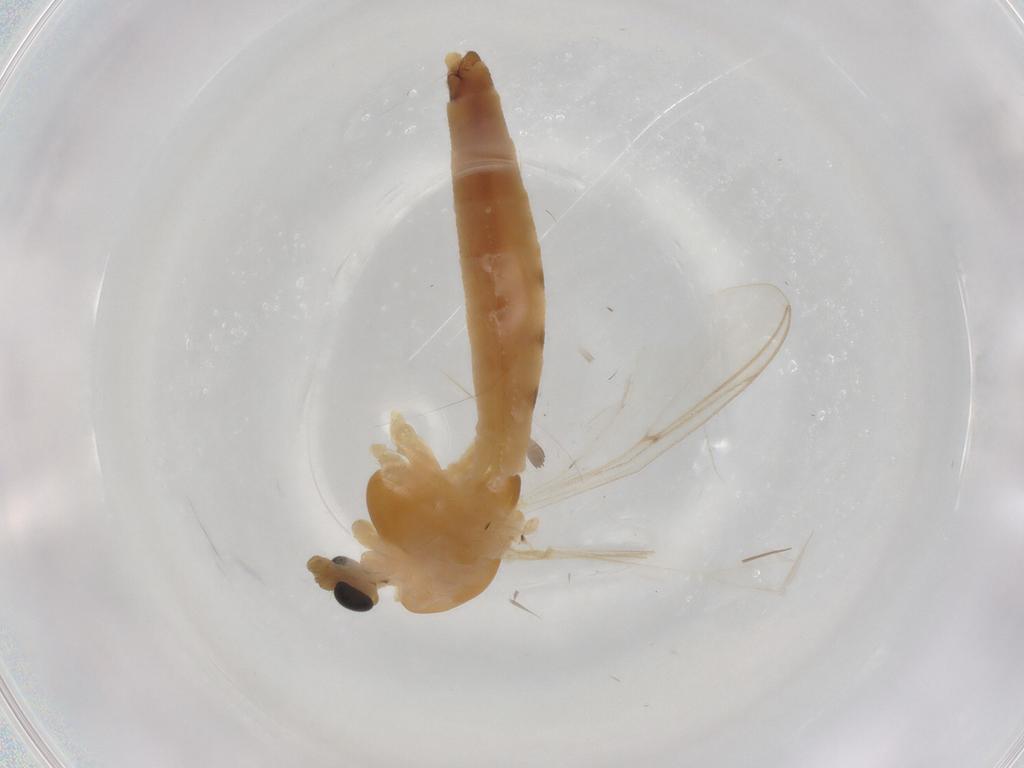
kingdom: Animalia
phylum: Arthropoda
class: Insecta
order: Diptera
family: Chironomidae
